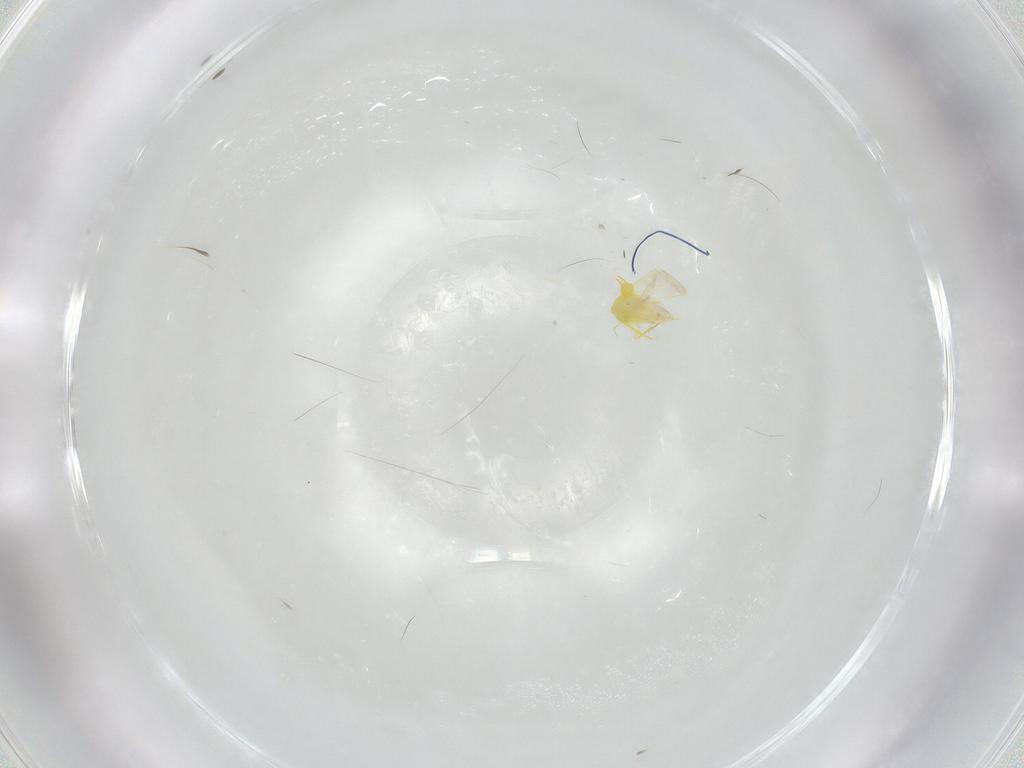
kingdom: Animalia
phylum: Arthropoda
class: Insecta
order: Diptera
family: Ceratopogonidae
